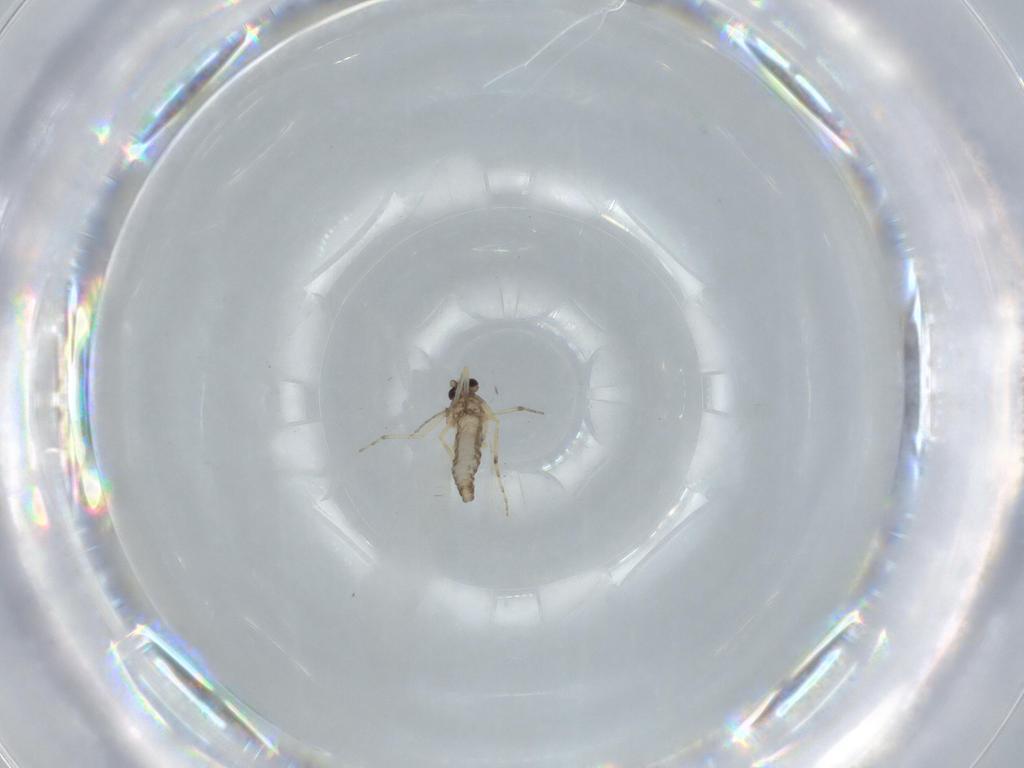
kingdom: Animalia
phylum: Arthropoda
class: Insecta
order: Diptera
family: Ceratopogonidae
